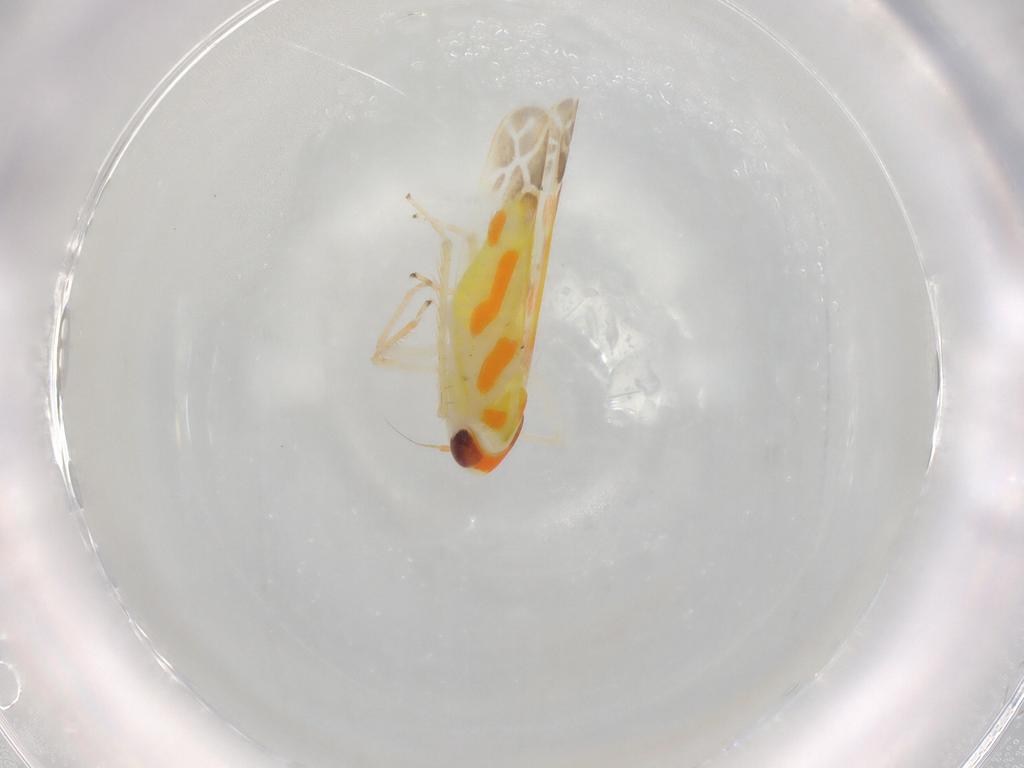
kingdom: Animalia
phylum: Arthropoda
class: Insecta
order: Hemiptera
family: Cicadellidae
